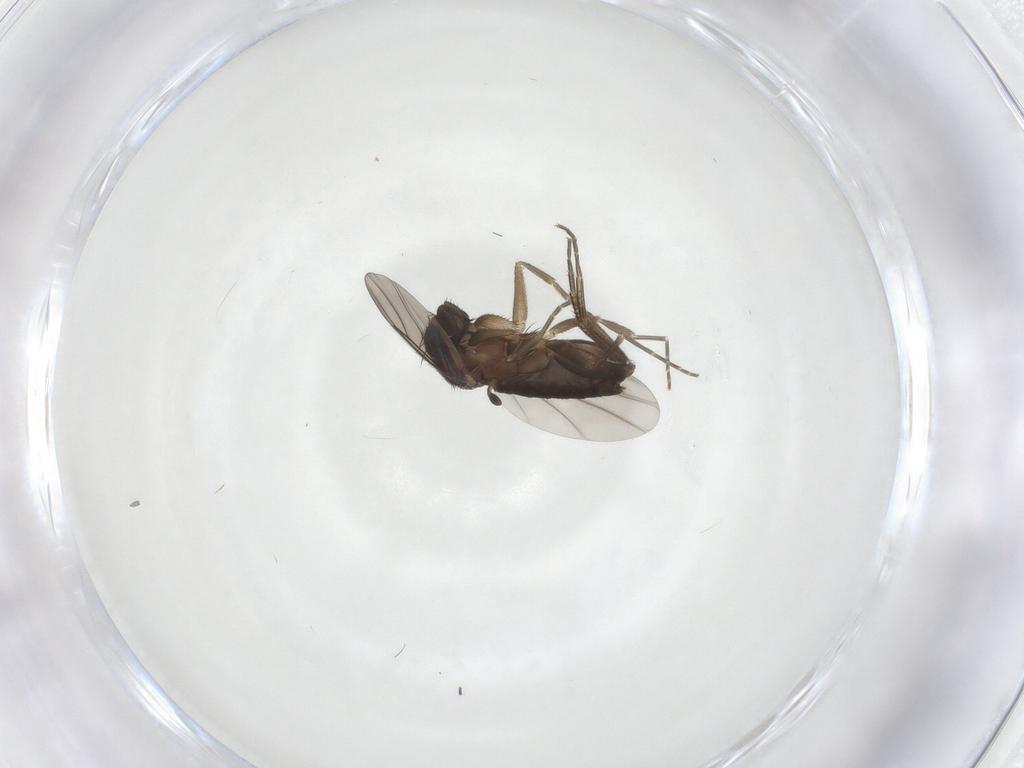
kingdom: Animalia
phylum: Arthropoda
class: Insecta
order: Diptera
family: Phoridae
